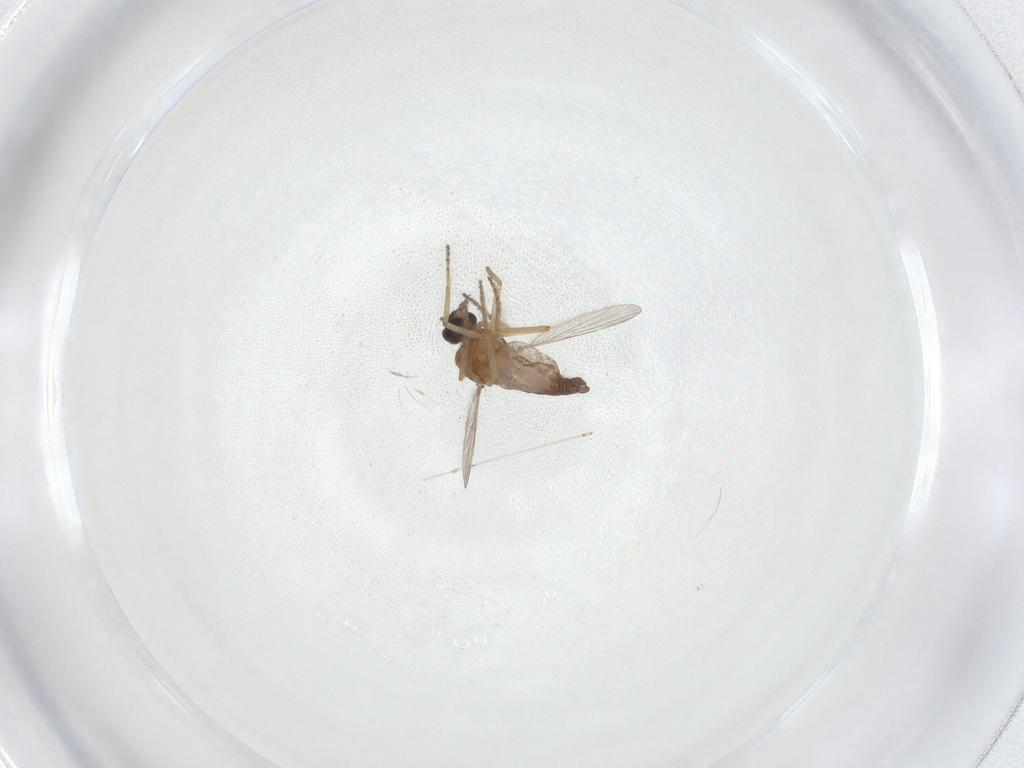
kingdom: Animalia
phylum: Arthropoda
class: Insecta
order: Diptera
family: Ceratopogonidae
